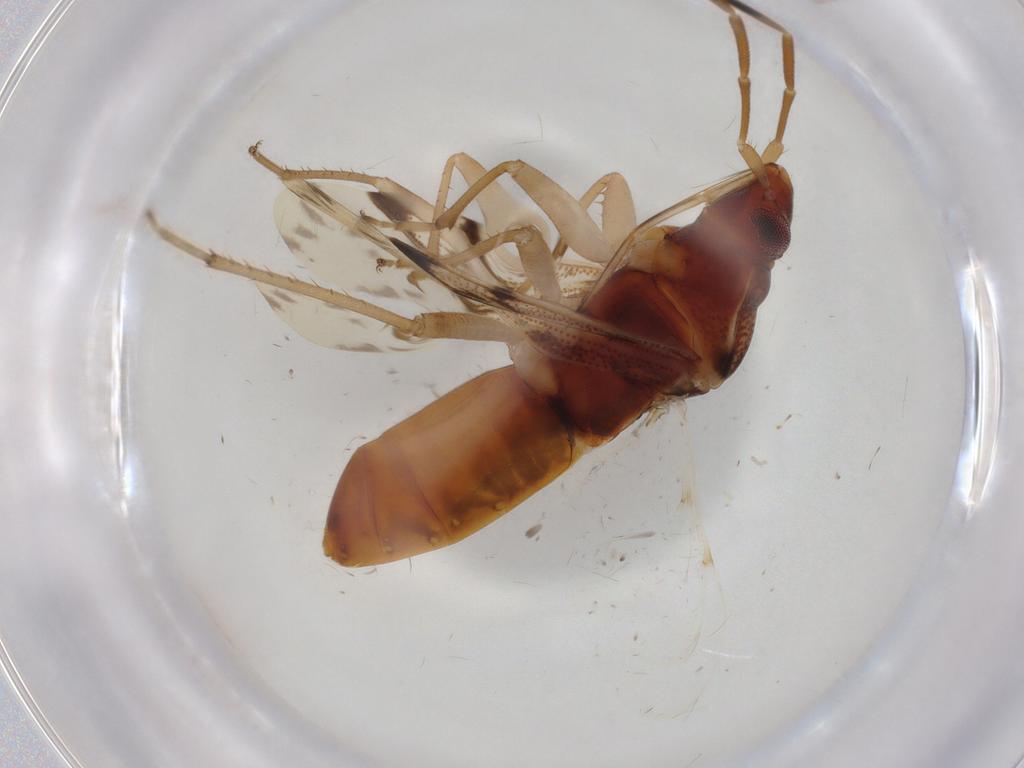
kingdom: Animalia
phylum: Arthropoda
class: Insecta
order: Hemiptera
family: Rhyparochromidae
